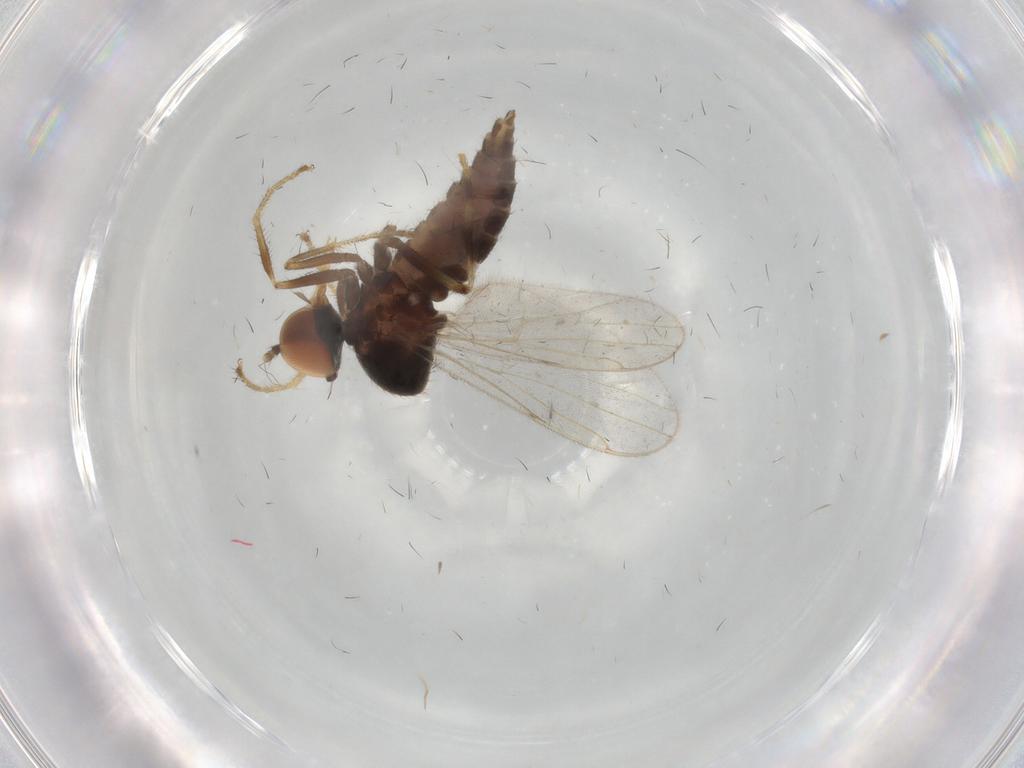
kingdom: Animalia
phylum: Arthropoda
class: Insecta
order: Diptera
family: Hybotidae
